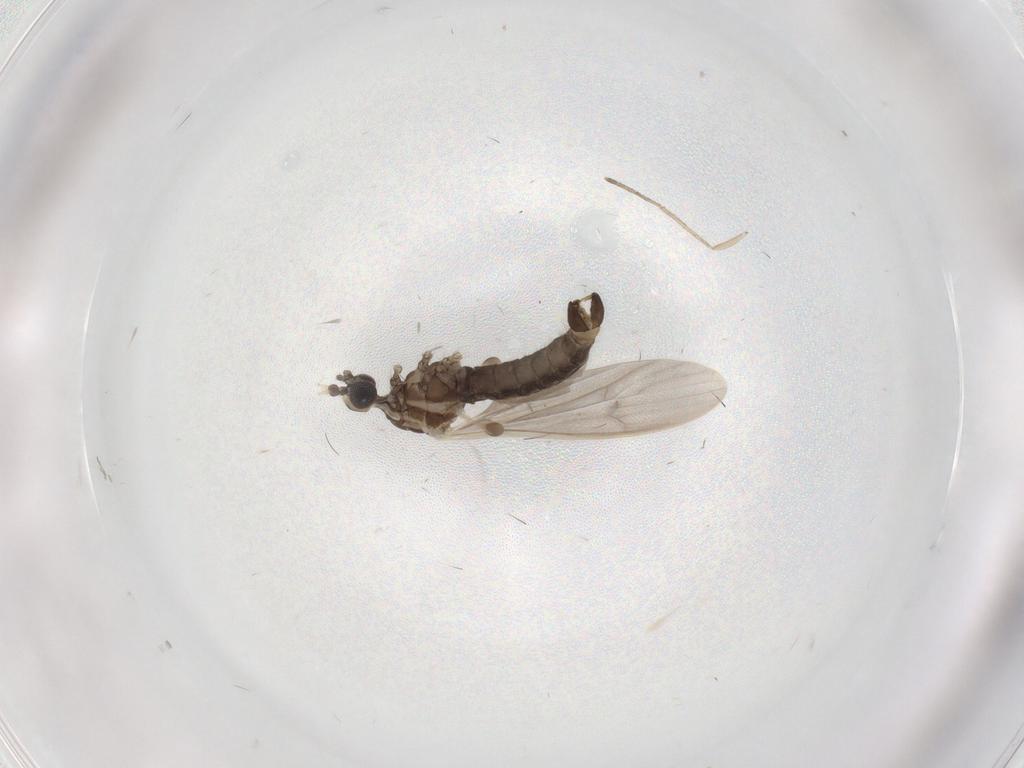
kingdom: Animalia
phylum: Arthropoda
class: Insecta
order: Diptera
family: Limoniidae
